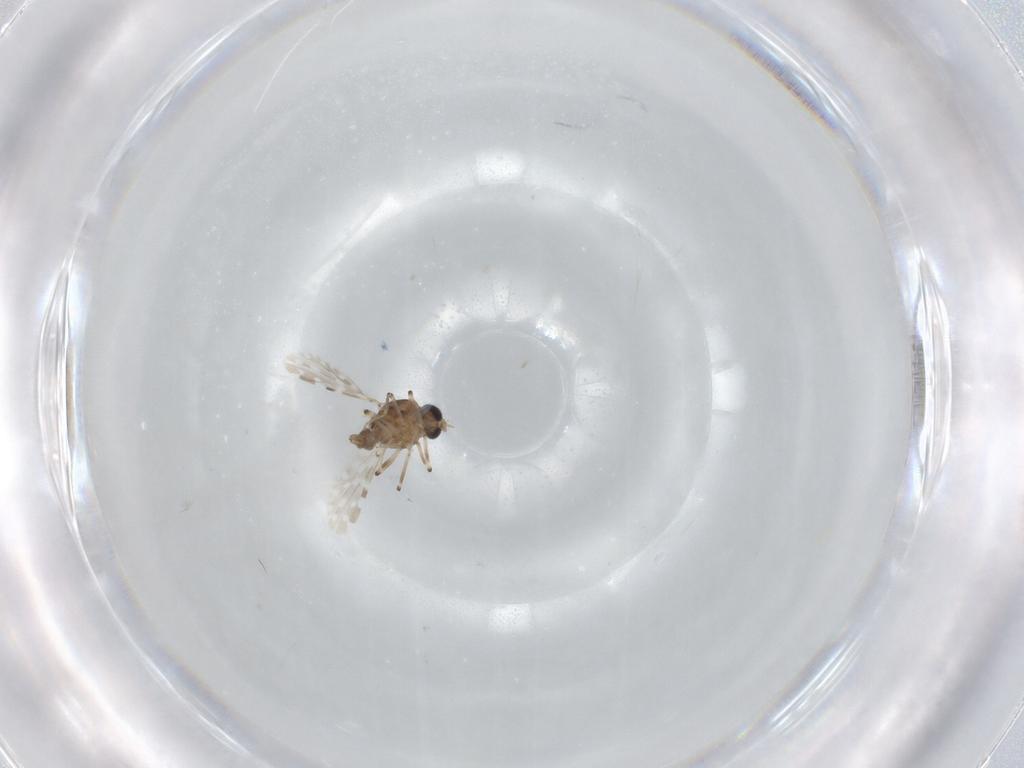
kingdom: Animalia
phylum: Arthropoda
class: Insecta
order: Diptera
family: Ceratopogonidae
